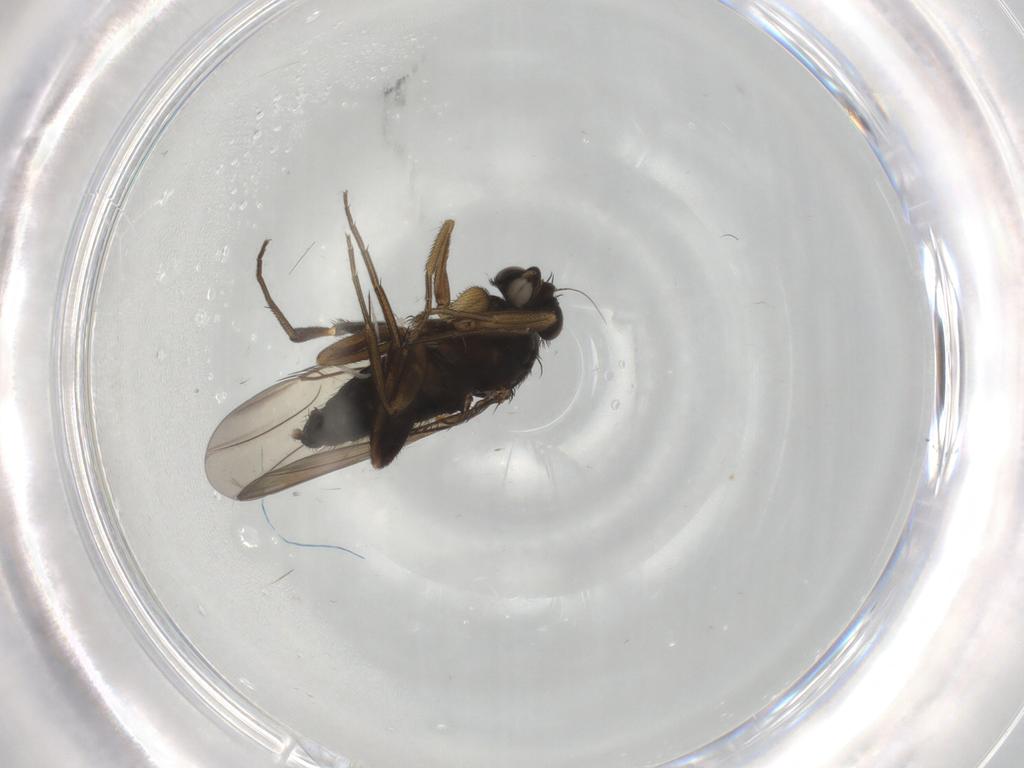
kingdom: Animalia
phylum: Arthropoda
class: Insecta
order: Diptera
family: Phoridae
